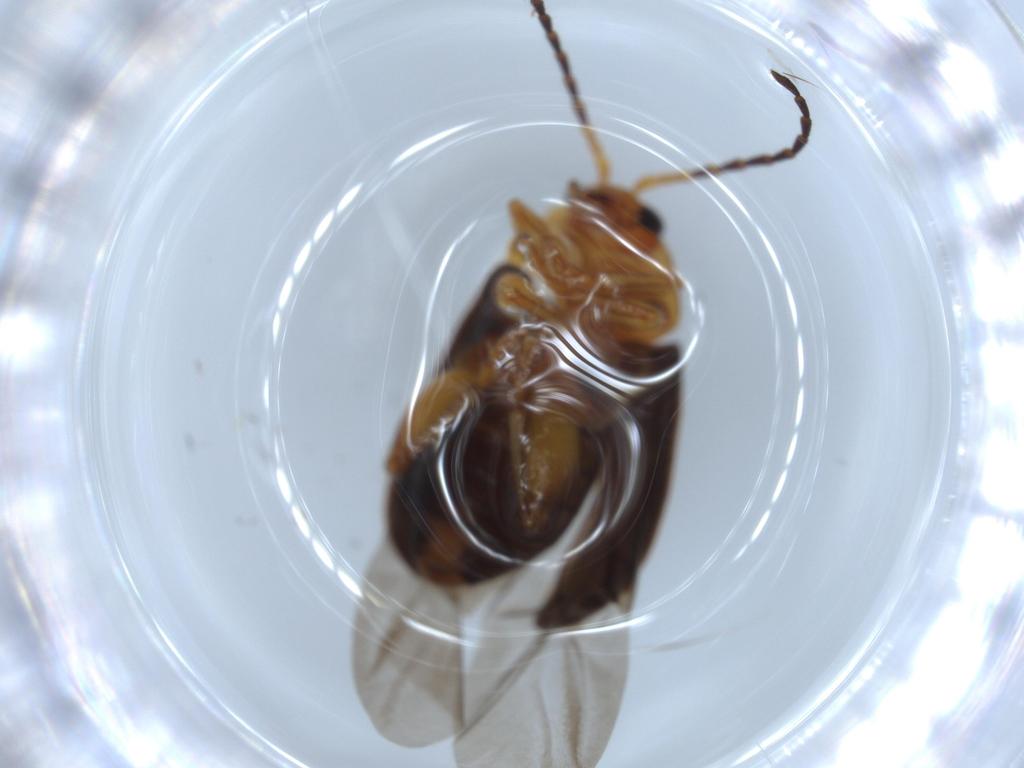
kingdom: Animalia
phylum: Arthropoda
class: Insecta
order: Coleoptera
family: Chrysomelidae
